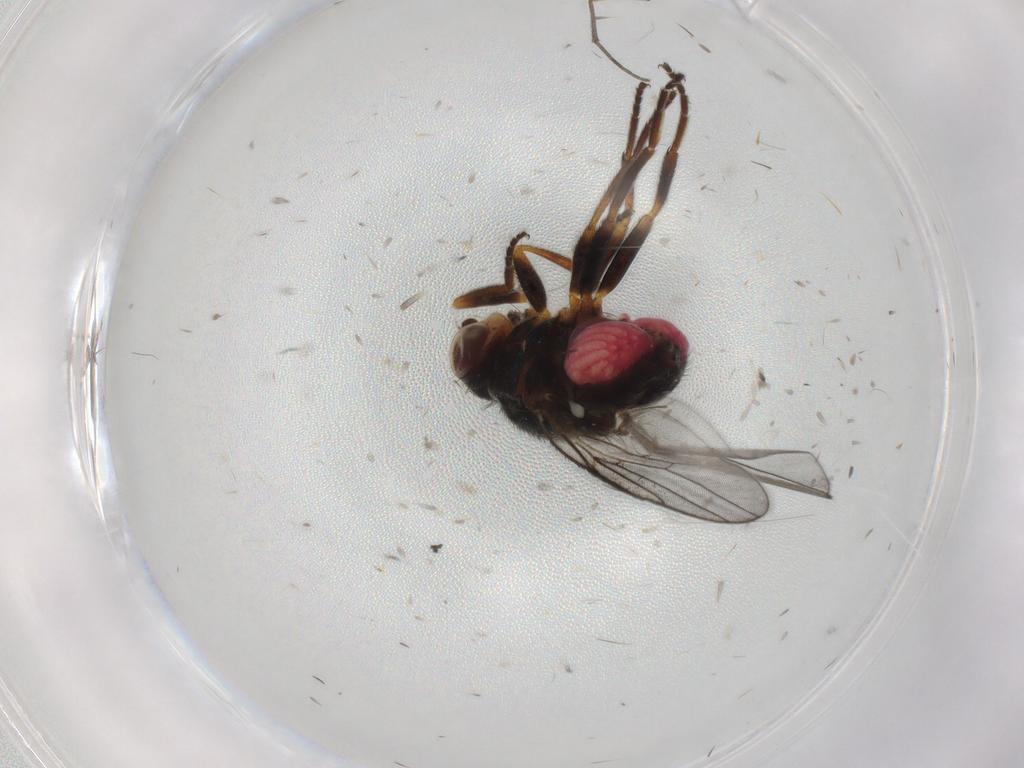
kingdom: Animalia
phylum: Arthropoda
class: Insecta
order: Diptera
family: Chloropidae
